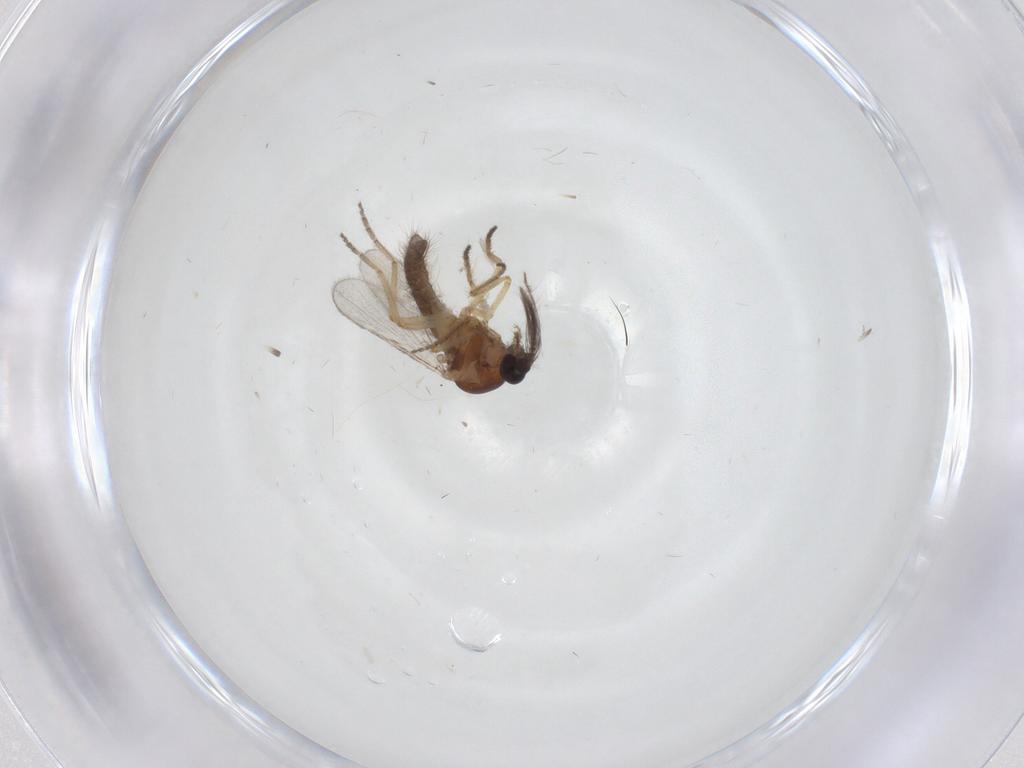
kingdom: Animalia
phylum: Arthropoda
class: Insecta
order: Diptera
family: Ceratopogonidae
